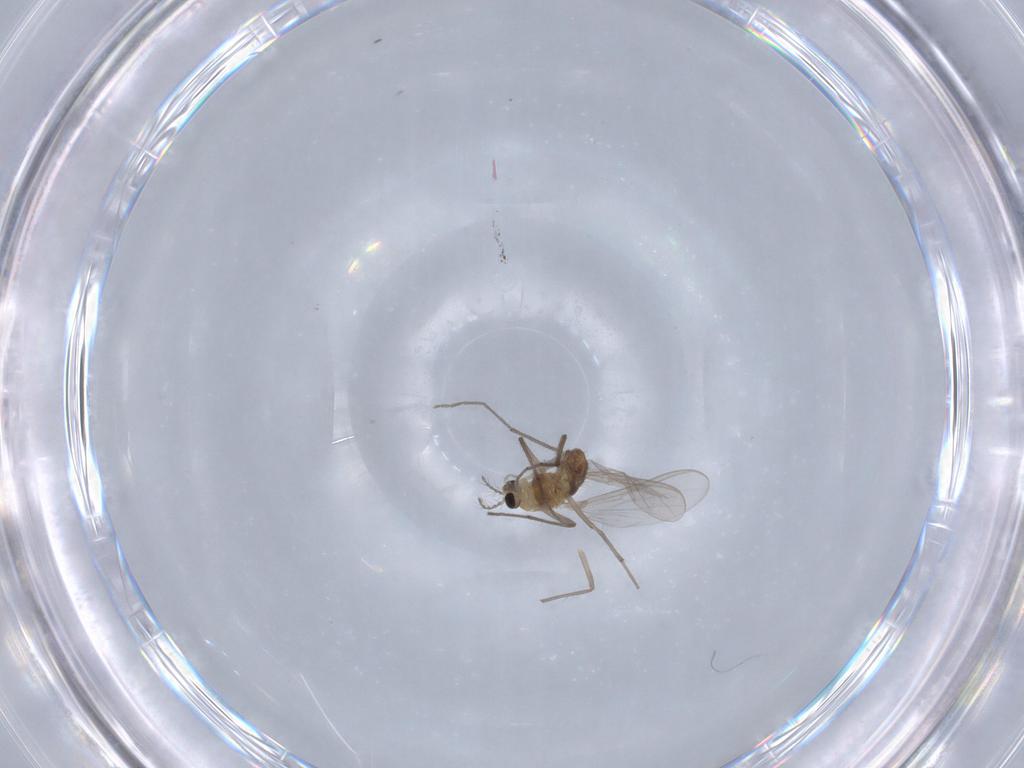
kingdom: Animalia
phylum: Arthropoda
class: Insecta
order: Diptera
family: Chironomidae
